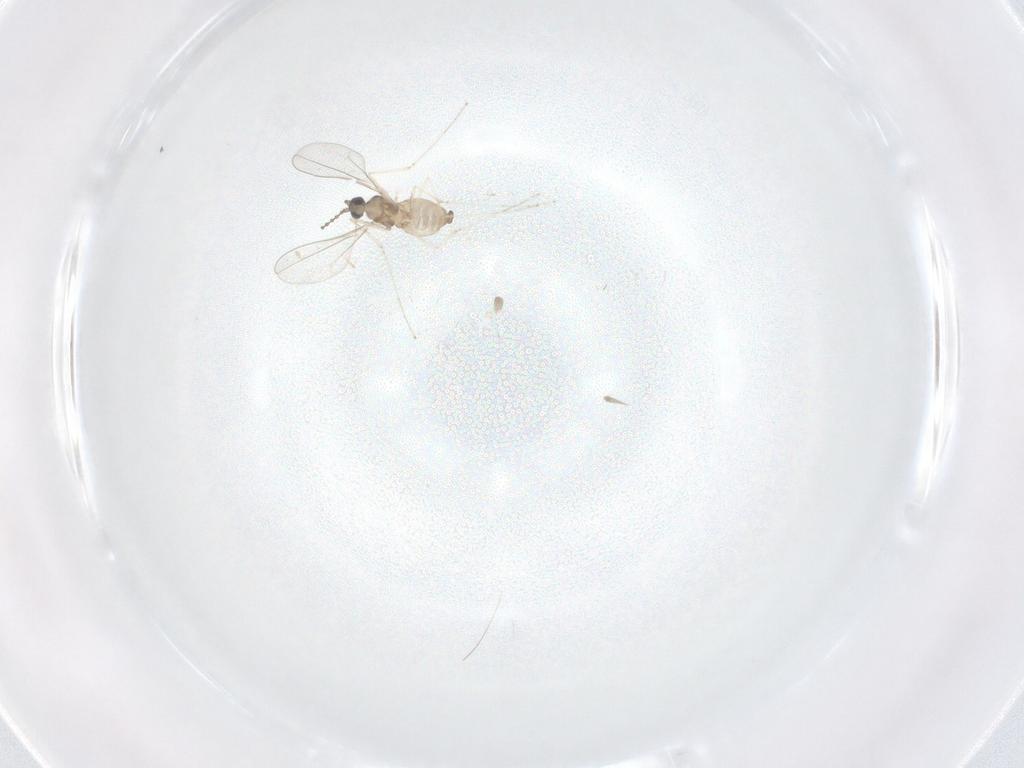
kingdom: Animalia
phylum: Arthropoda
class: Insecta
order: Diptera
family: Cecidomyiidae
